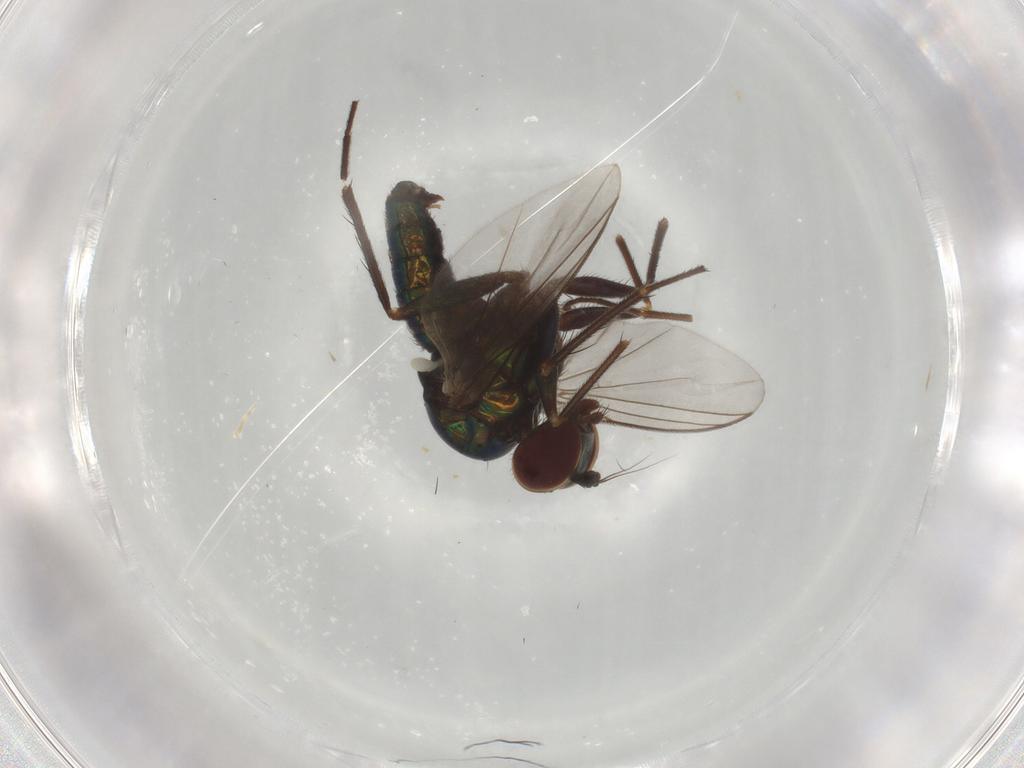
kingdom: Animalia
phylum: Arthropoda
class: Insecta
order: Diptera
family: Dolichopodidae
